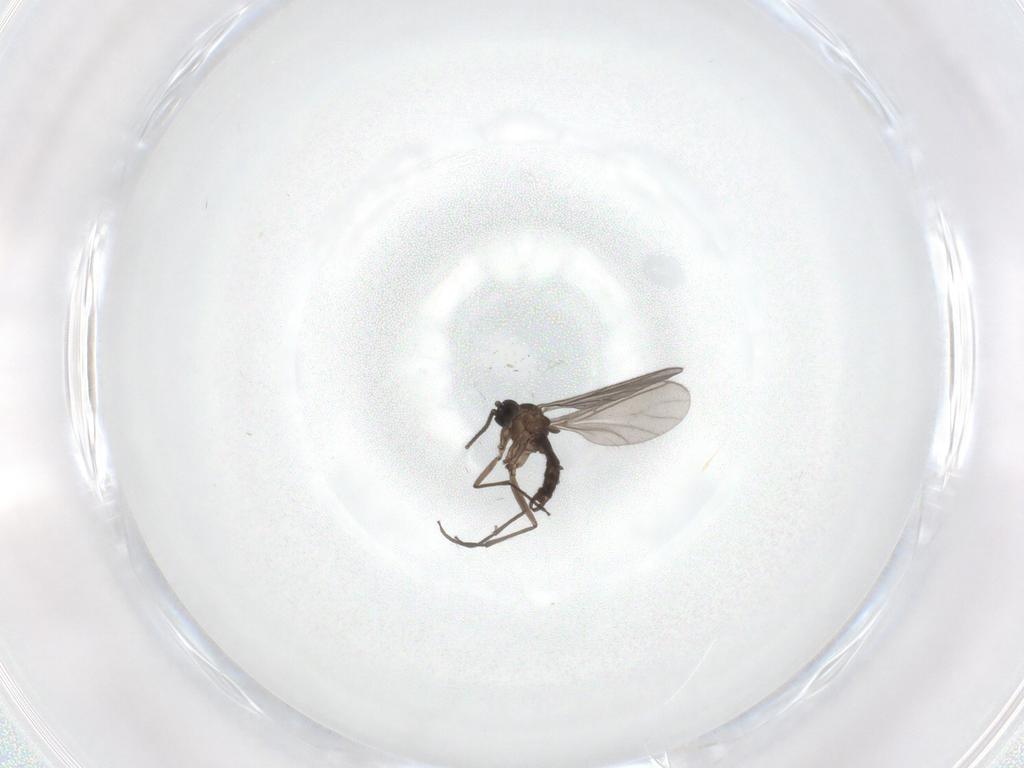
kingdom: Animalia
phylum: Arthropoda
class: Insecta
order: Diptera
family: Sciaridae
